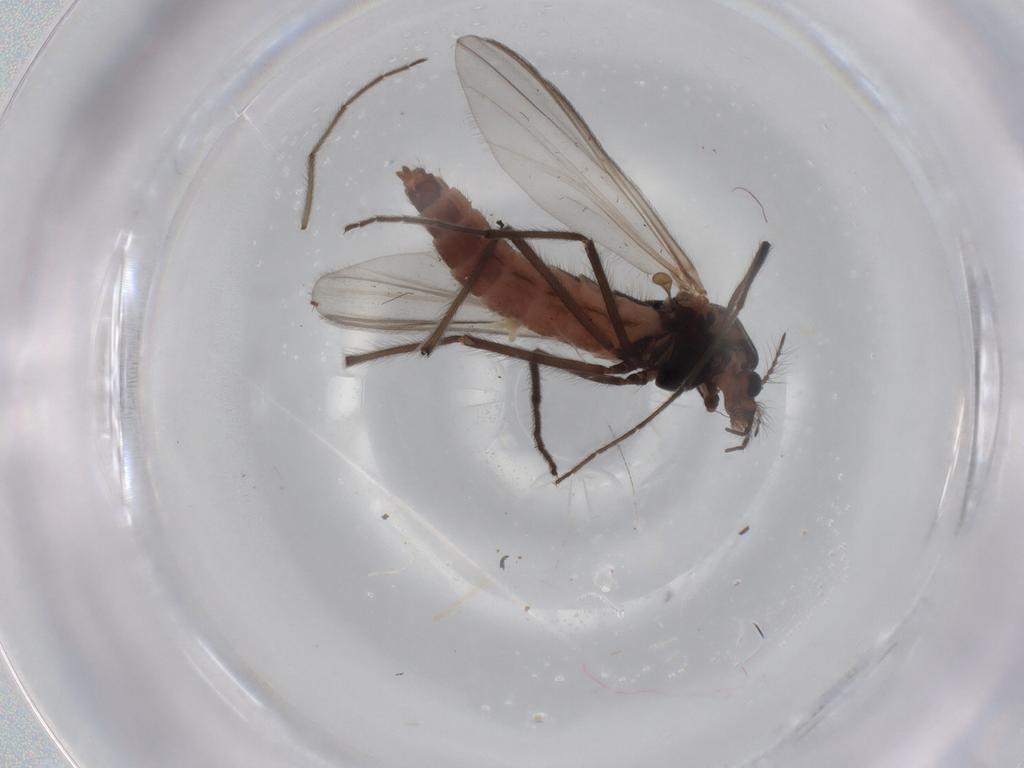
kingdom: Animalia
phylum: Arthropoda
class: Insecta
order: Diptera
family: Chironomidae
